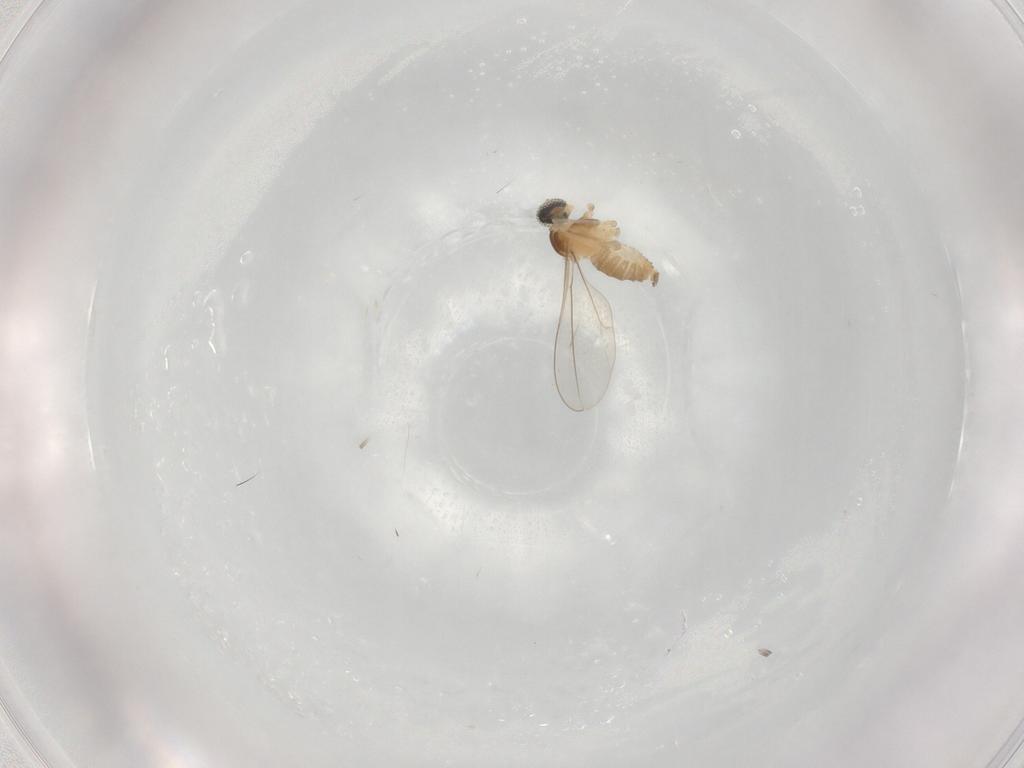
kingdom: Animalia
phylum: Arthropoda
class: Insecta
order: Diptera
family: Cecidomyiidae
